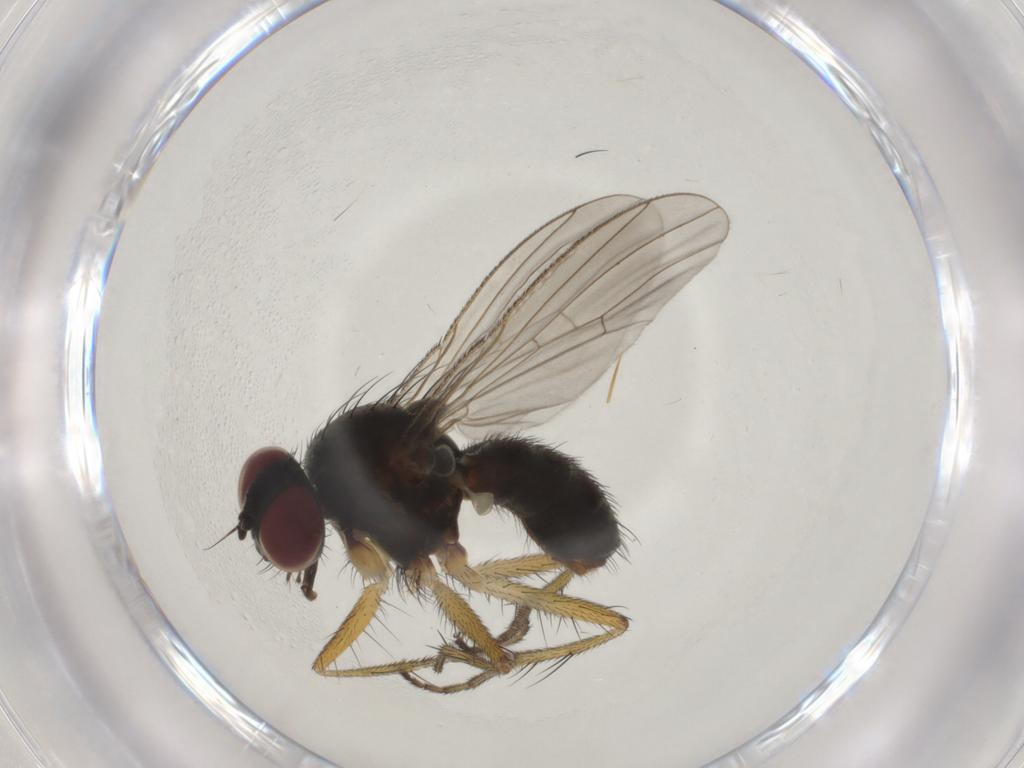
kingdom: Animalia
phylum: Arthropoda
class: Insecta
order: Diptera
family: Muscidae
